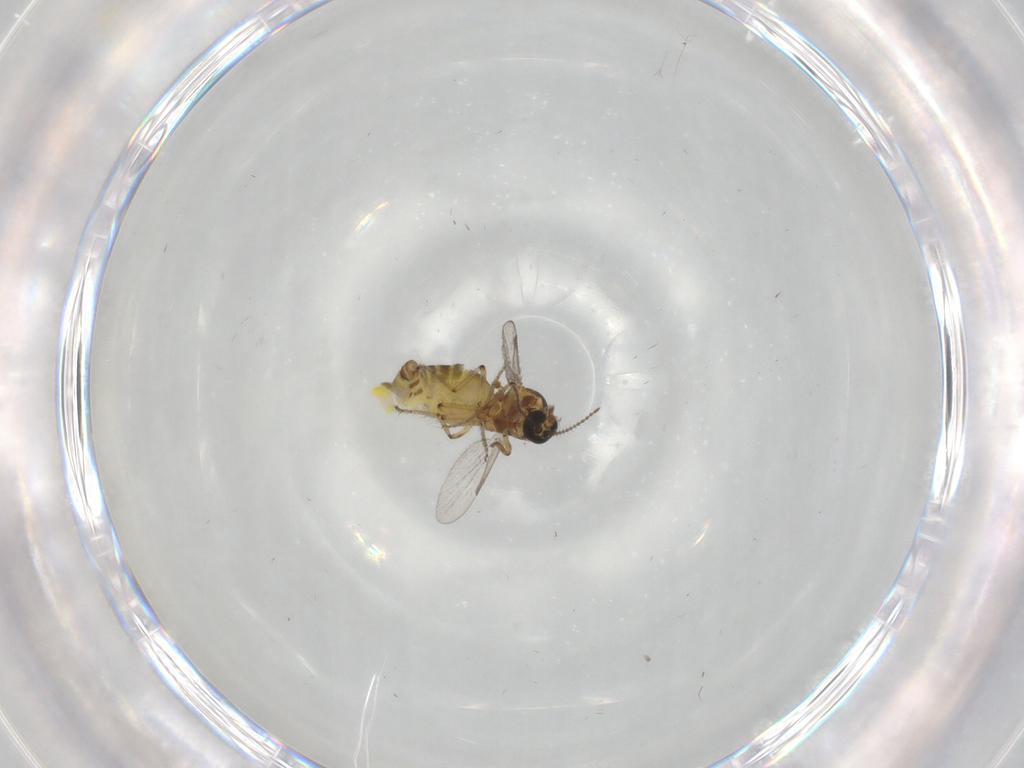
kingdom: Animalia
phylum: Arthropoda
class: Insecta
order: Diptera
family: Ceratopogonidae
